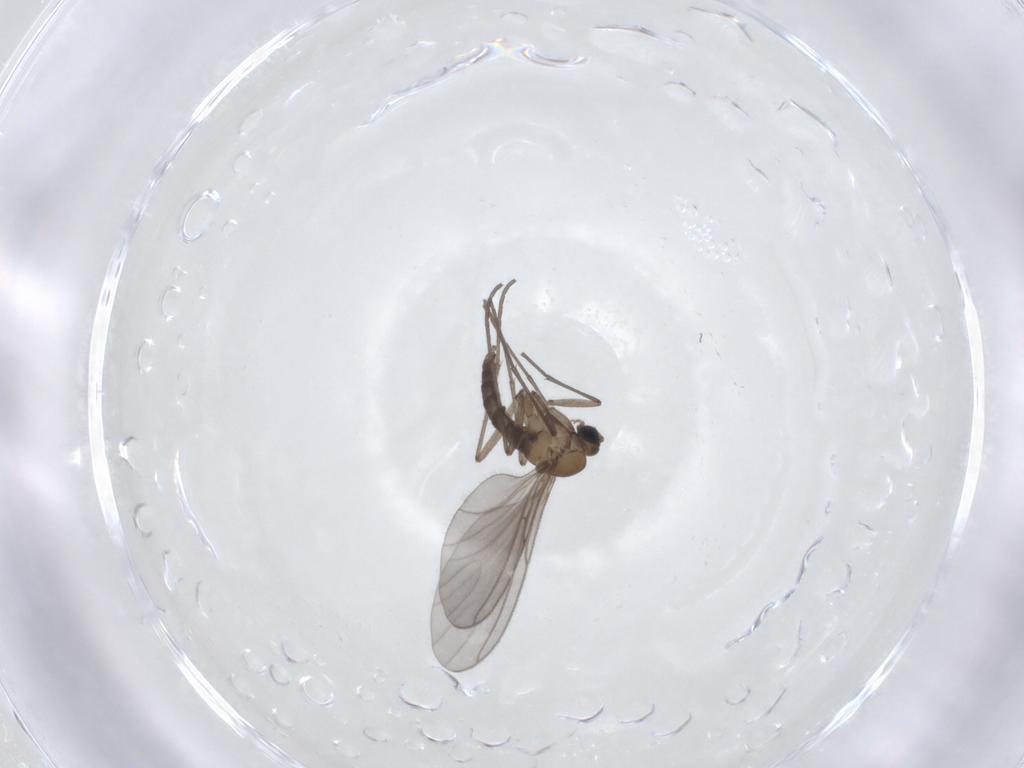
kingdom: Animalia
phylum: Arthropoda
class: Insecta
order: Diptera
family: Sciaridae
